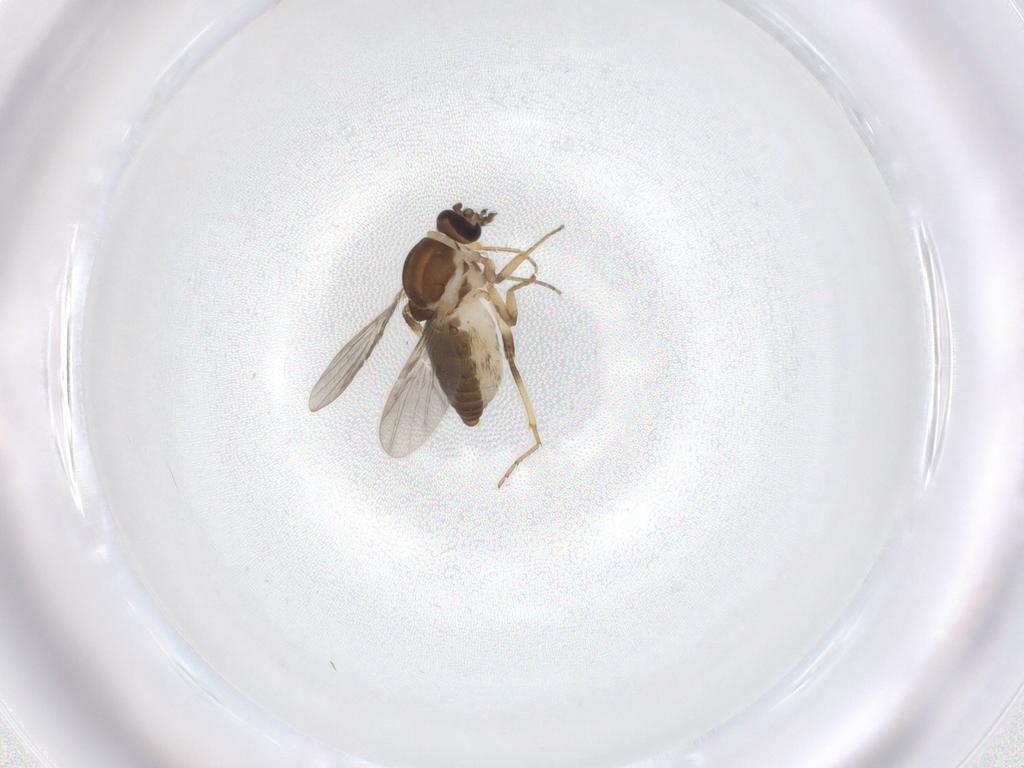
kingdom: Animalia
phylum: Arthropoda
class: Insecta
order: Diptera
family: Ceratopogonidae
